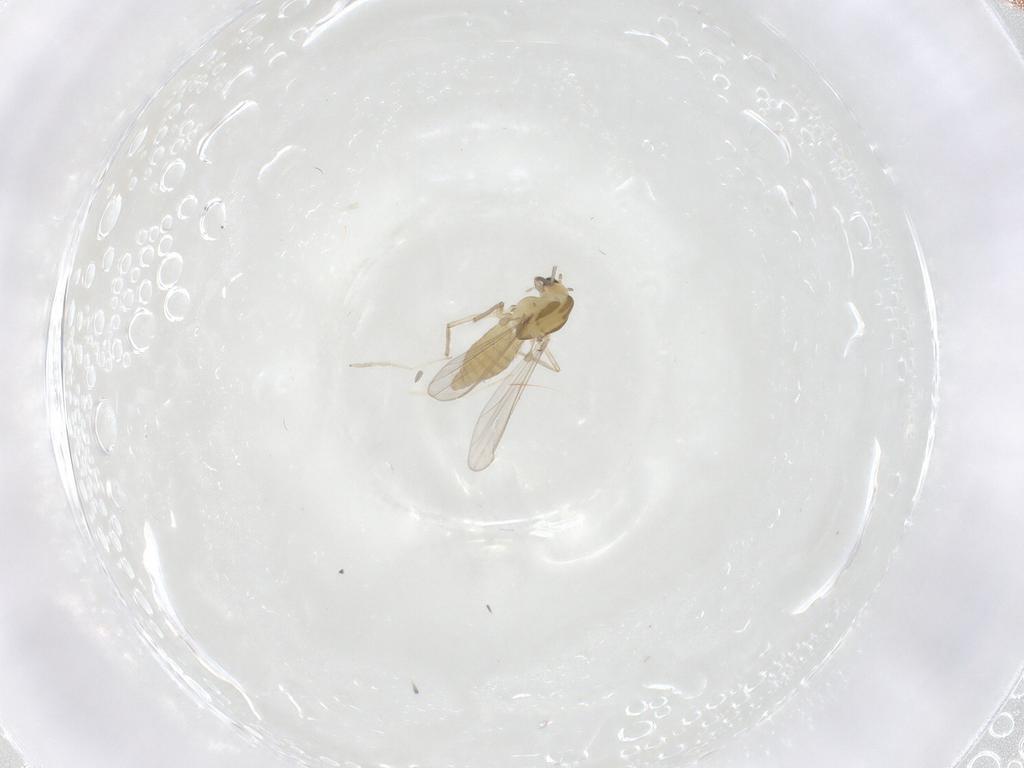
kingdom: Animalia
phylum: Arthropoda
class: Insecta
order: Diptera
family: Chironomidae
